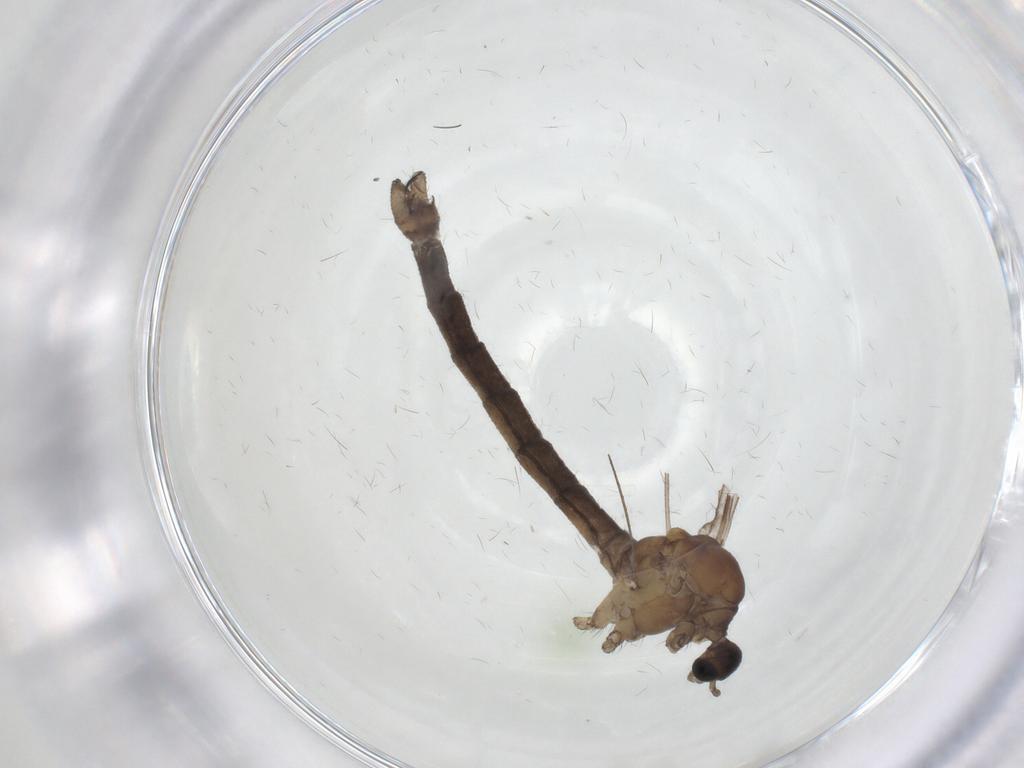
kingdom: Animalia
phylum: Arthropoda
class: Insecta
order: Diptera
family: Limoniidae
